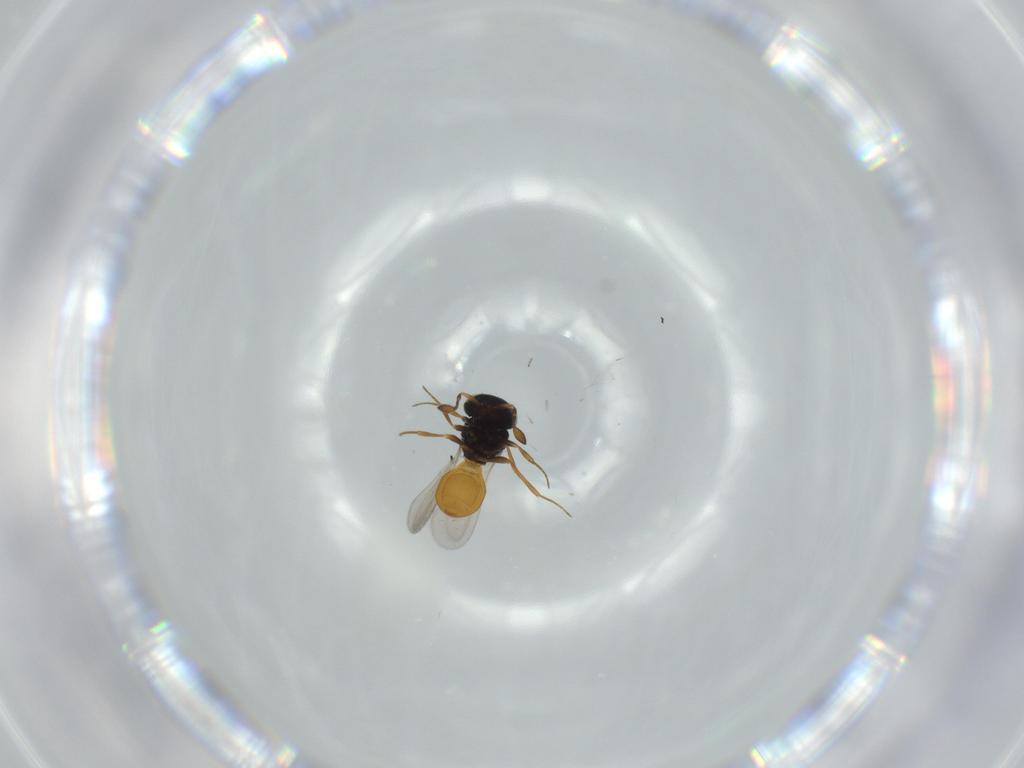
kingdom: Animalia
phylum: Arthropoda
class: Insecta
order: Hymenoptera
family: Scelionidae
